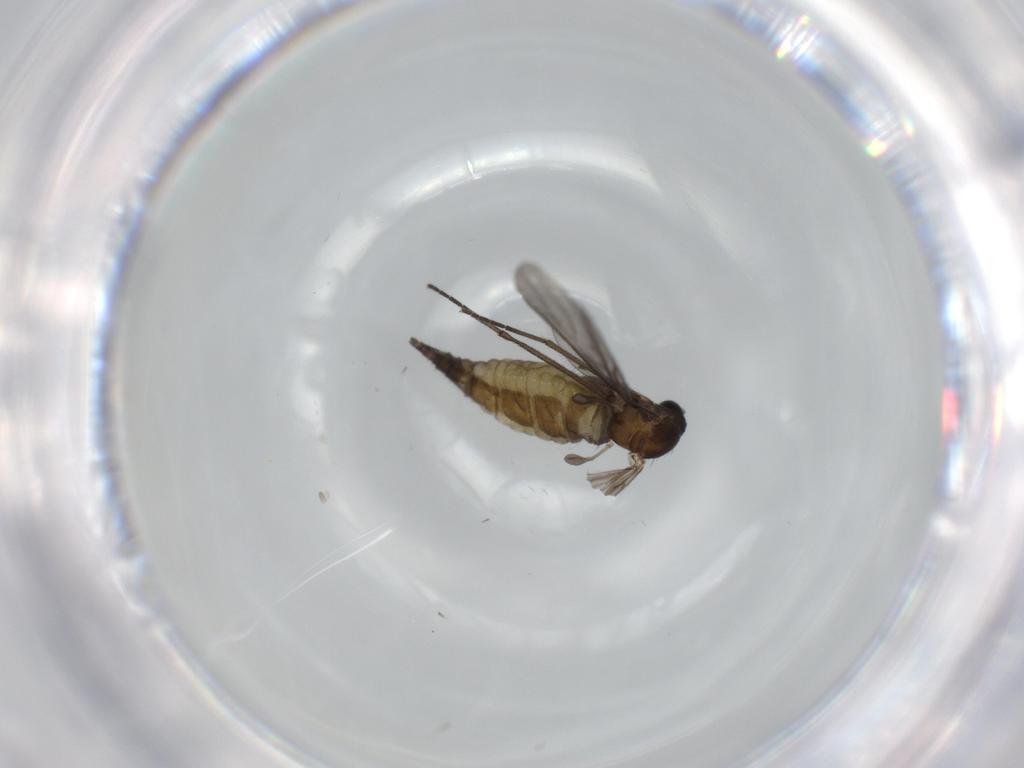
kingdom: Animalia
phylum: Arthropoda
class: Insecta
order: Diptera
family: Sciaridae
